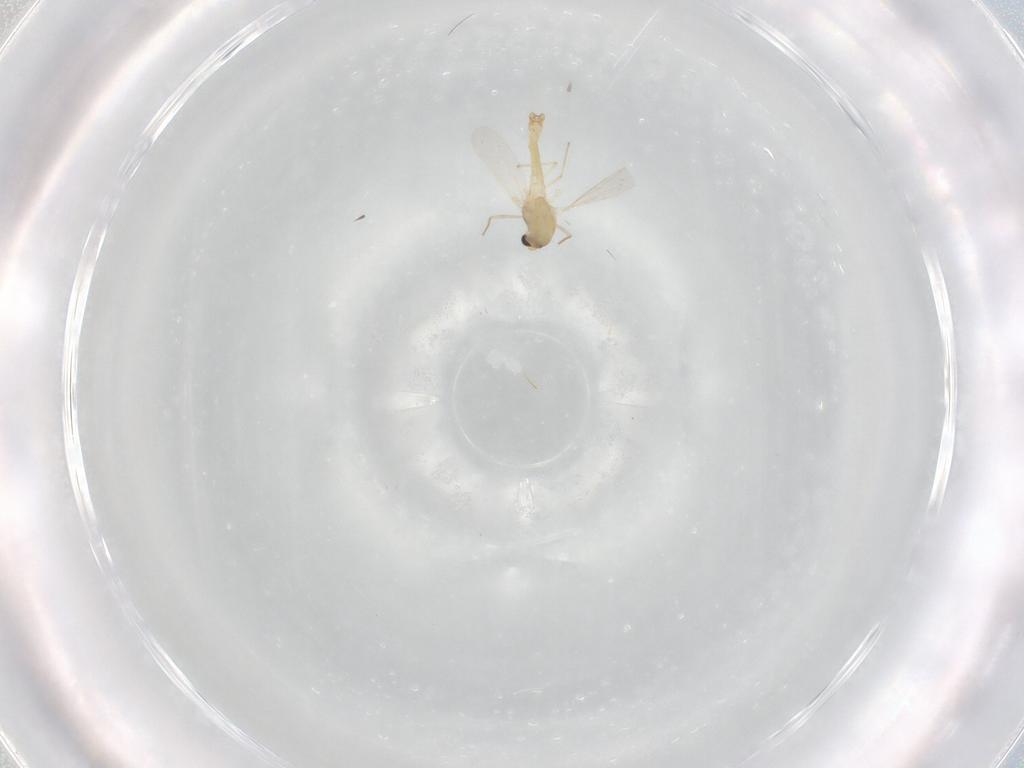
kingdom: Animalia
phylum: Arthropoda
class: Insecta
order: Diptera
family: Chironomidae
